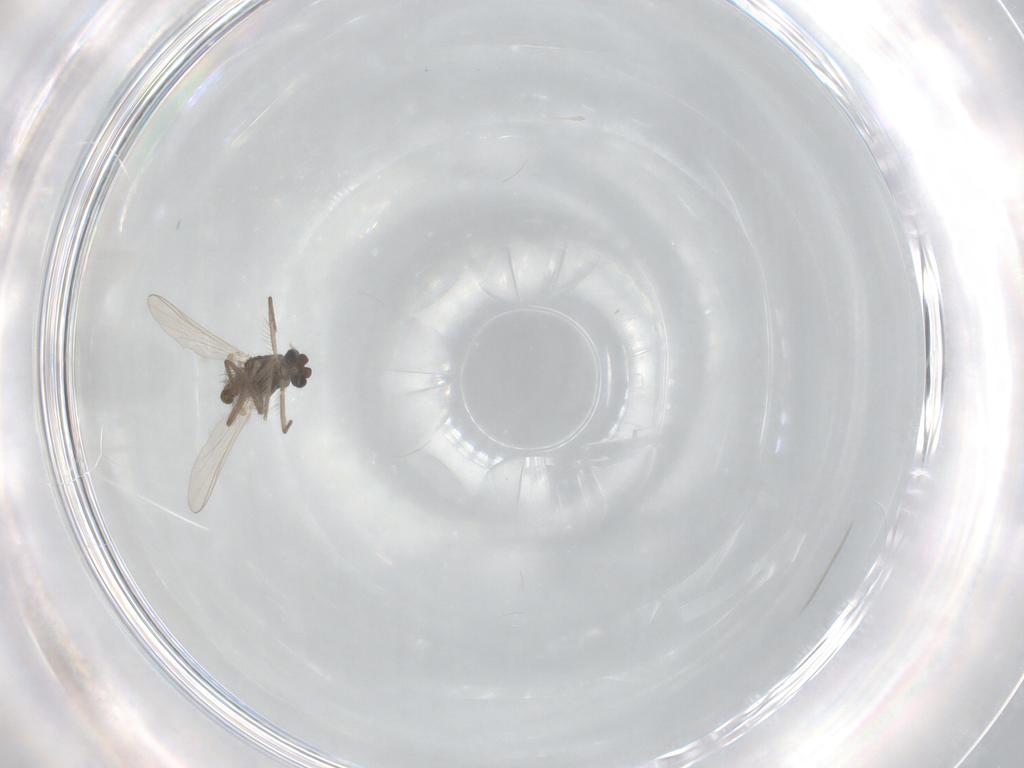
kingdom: Animalia
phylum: Arthropoda
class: Insecta
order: Diptera
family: Chironomidae
